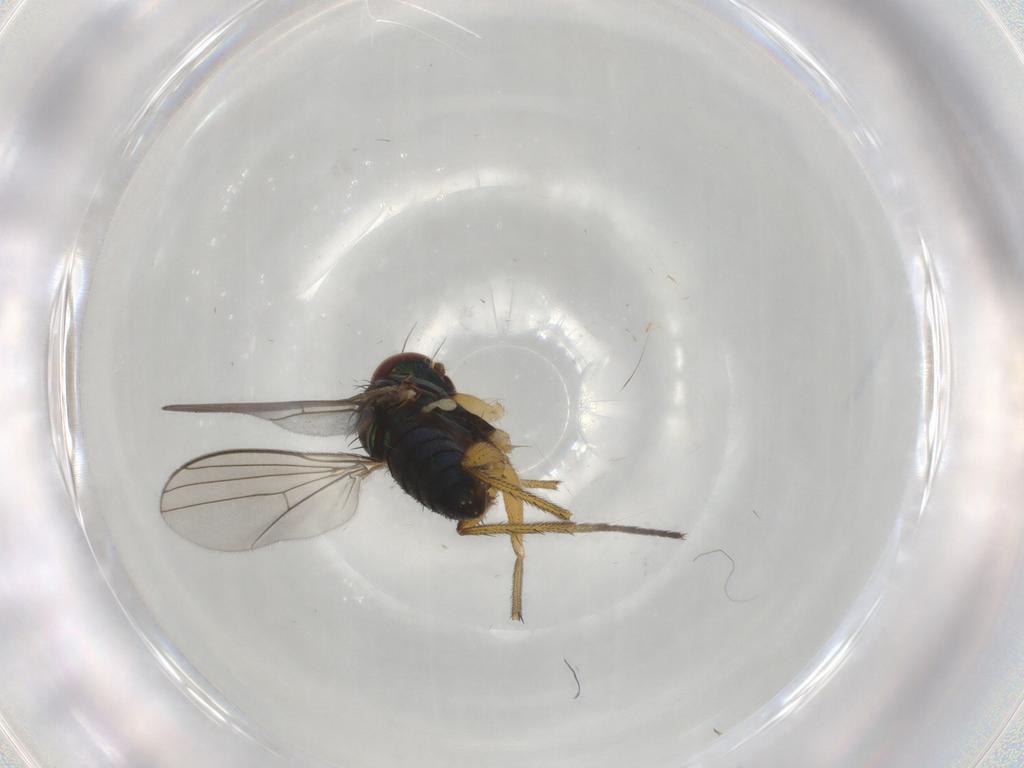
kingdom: Animalia
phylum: Arthropoda
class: Insecta
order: Diptera
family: Dolichopodidae
